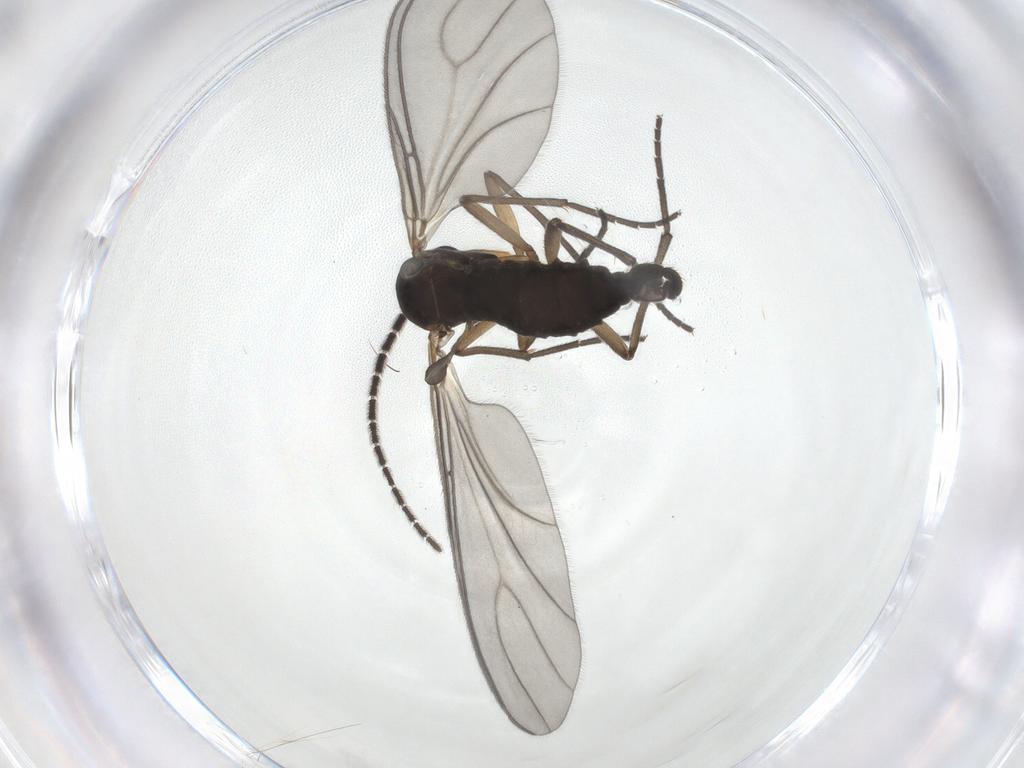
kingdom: Animalia
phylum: Arthropoda
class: Insecta
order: Diptera
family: Sciaridae
